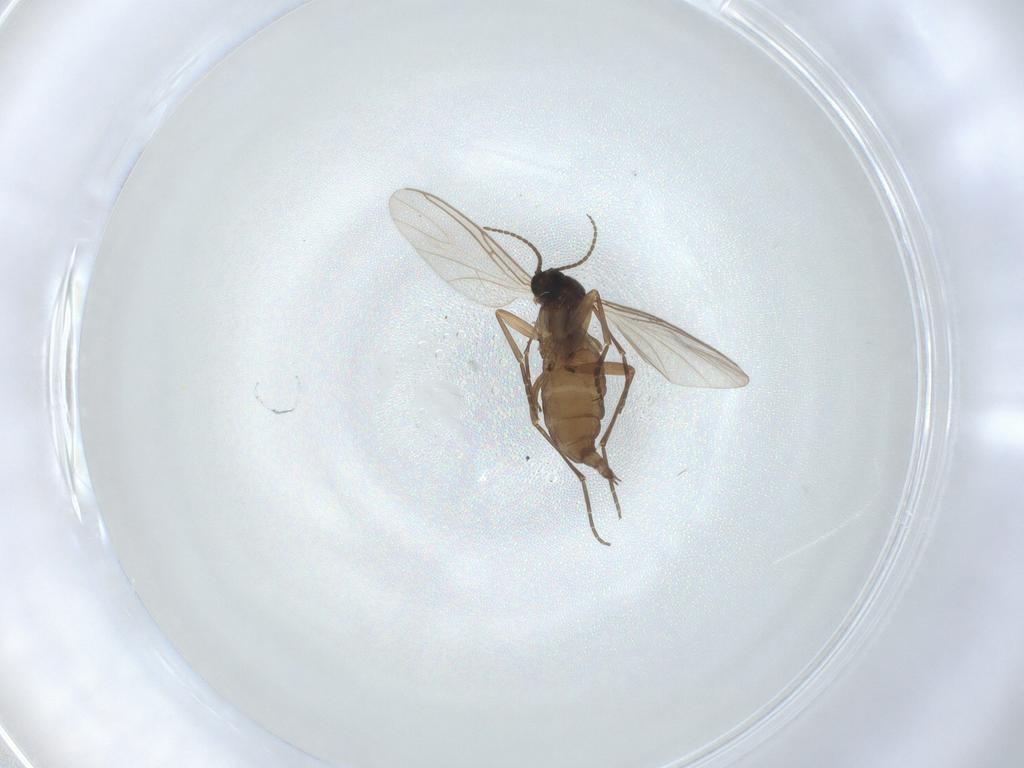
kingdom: Animalia
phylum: Arthropoda
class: Insecta
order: Diptera
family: Sciaridae
